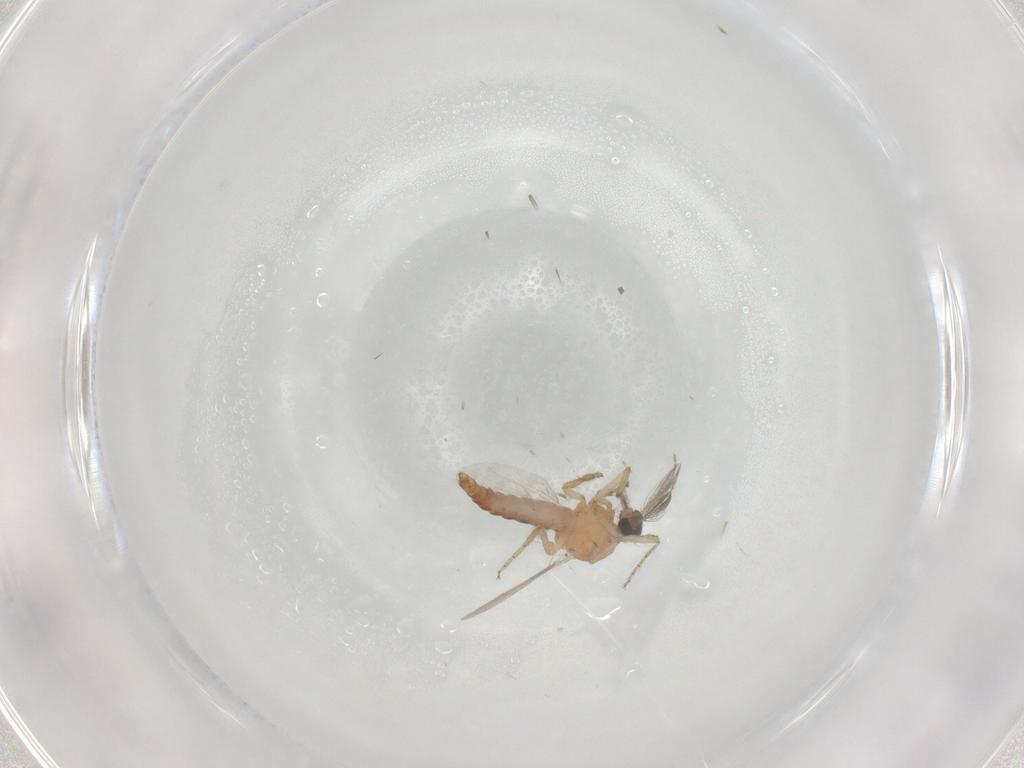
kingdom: Animalia
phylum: Arthropoda
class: Insecta
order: Diptera
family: Ceratopogonidae
